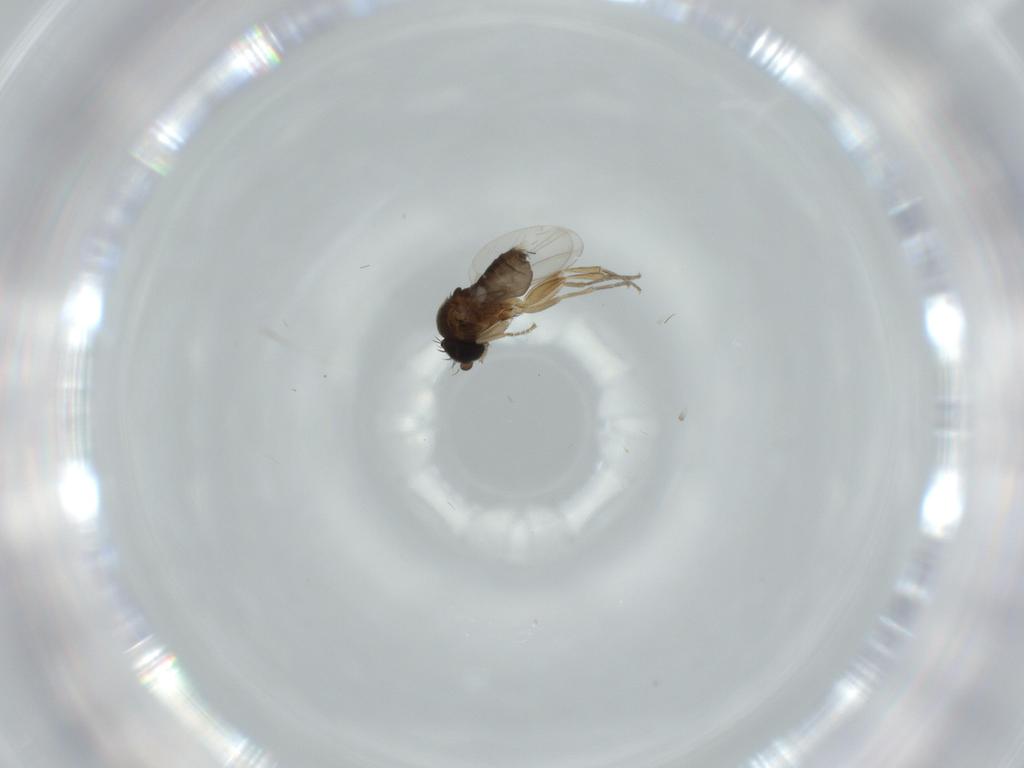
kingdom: Animalia
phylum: Arthropoda
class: Insecta
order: Diptera
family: Phoridae
